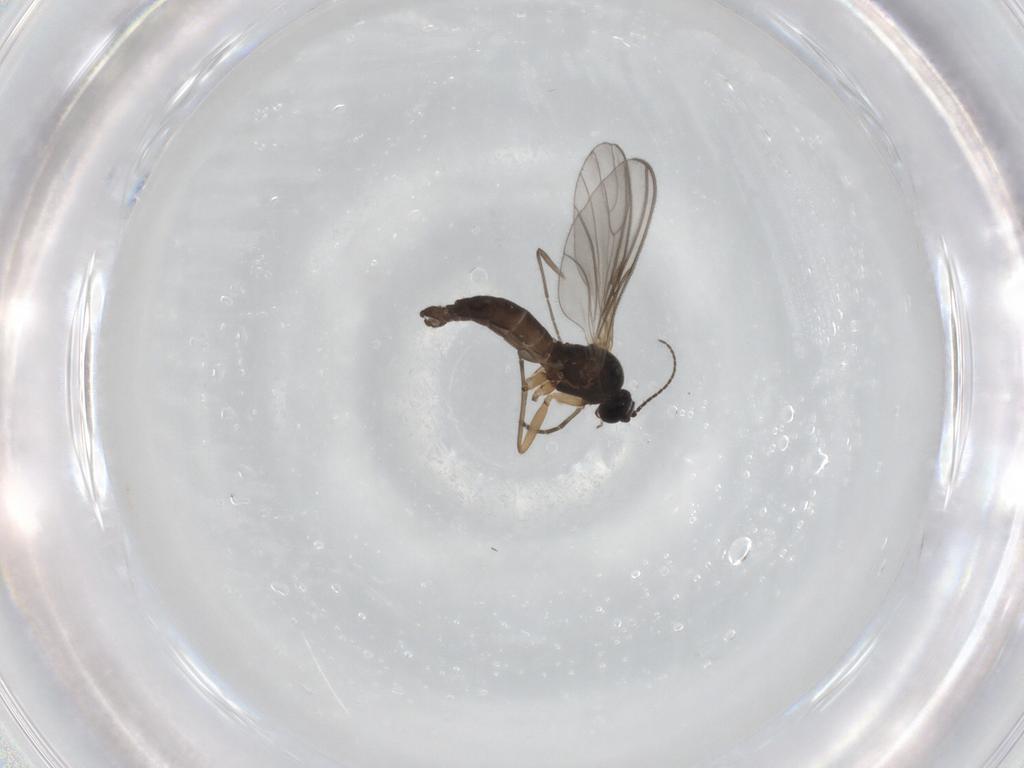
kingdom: Animalia
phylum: Arthropoda
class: Insecta
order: Diptera
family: Sciaridae
